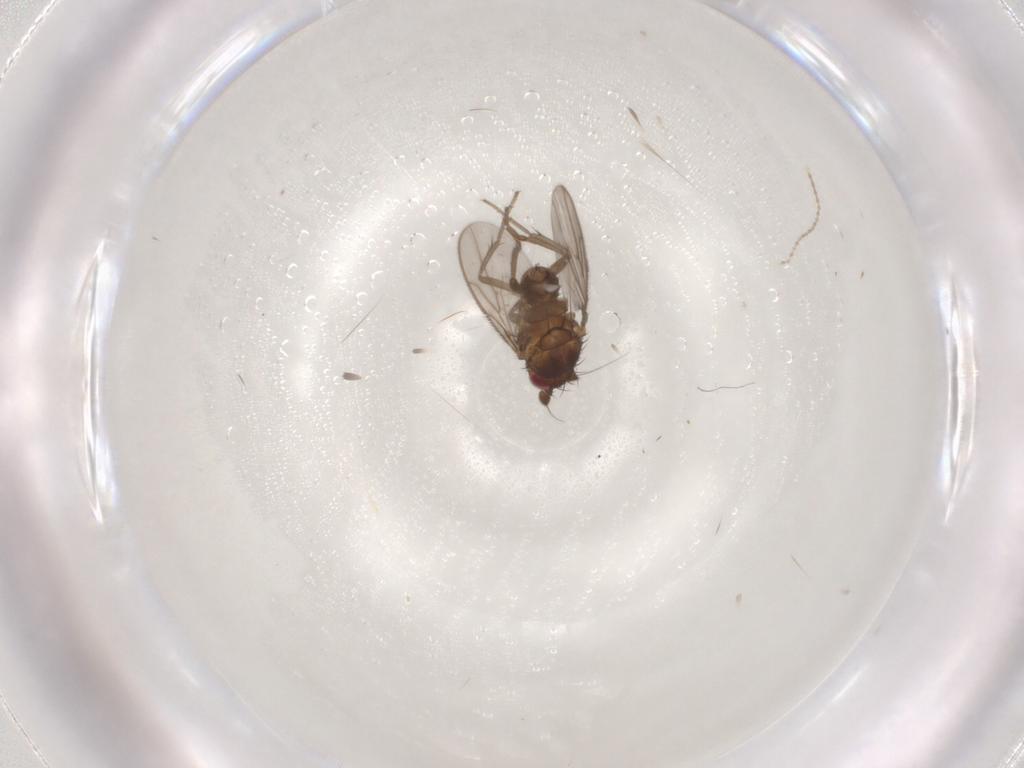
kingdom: Animalia
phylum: Arthropoda
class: Insecta
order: Diptera
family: Sphaeroceridae
